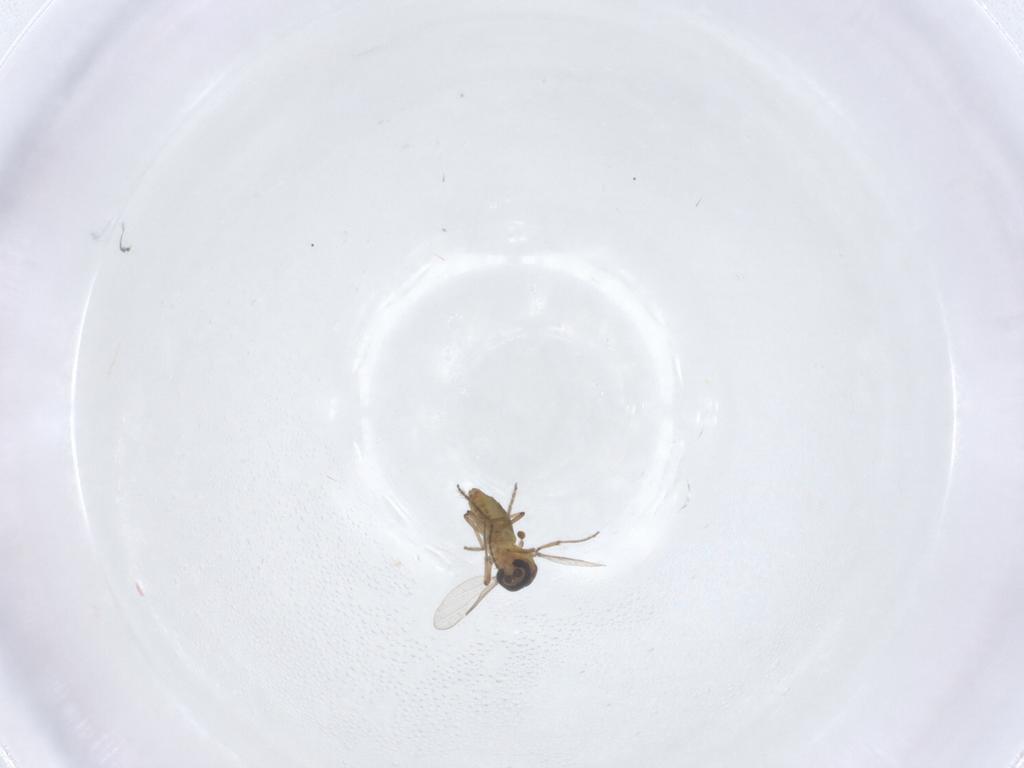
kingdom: Animalia
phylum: Arthropoda
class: Insecta
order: Diptera
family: Ceratopogonidae
